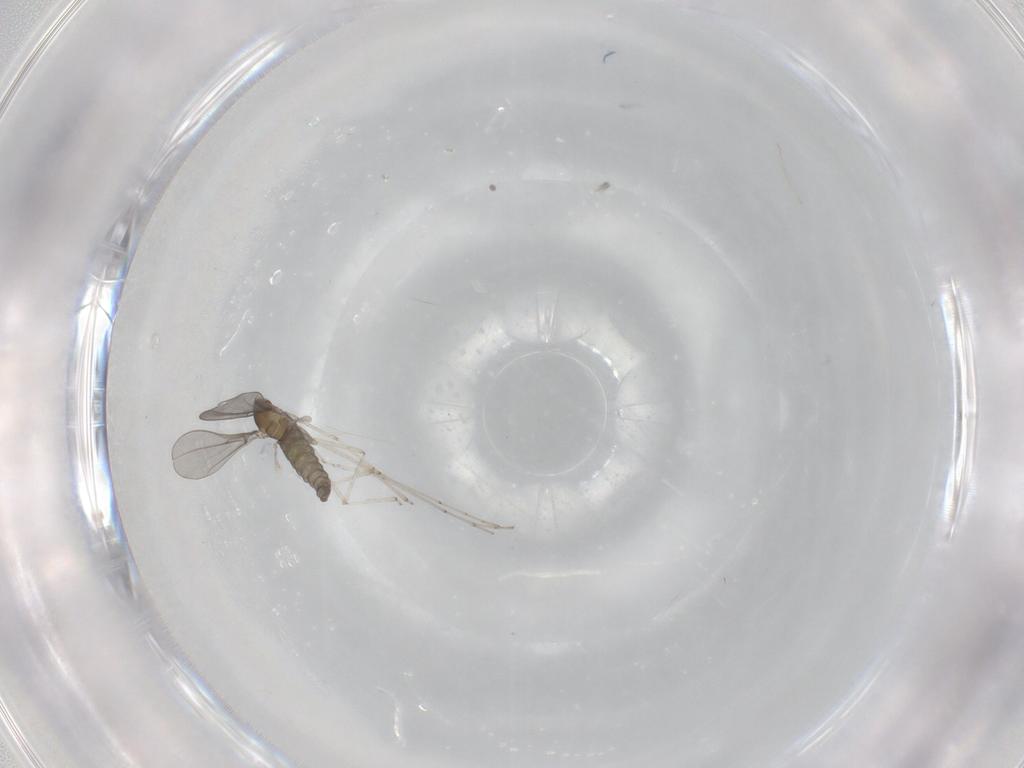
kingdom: Animalia
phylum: Arthropoda
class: Insecta
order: Diptera
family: Cecidomyiidae
